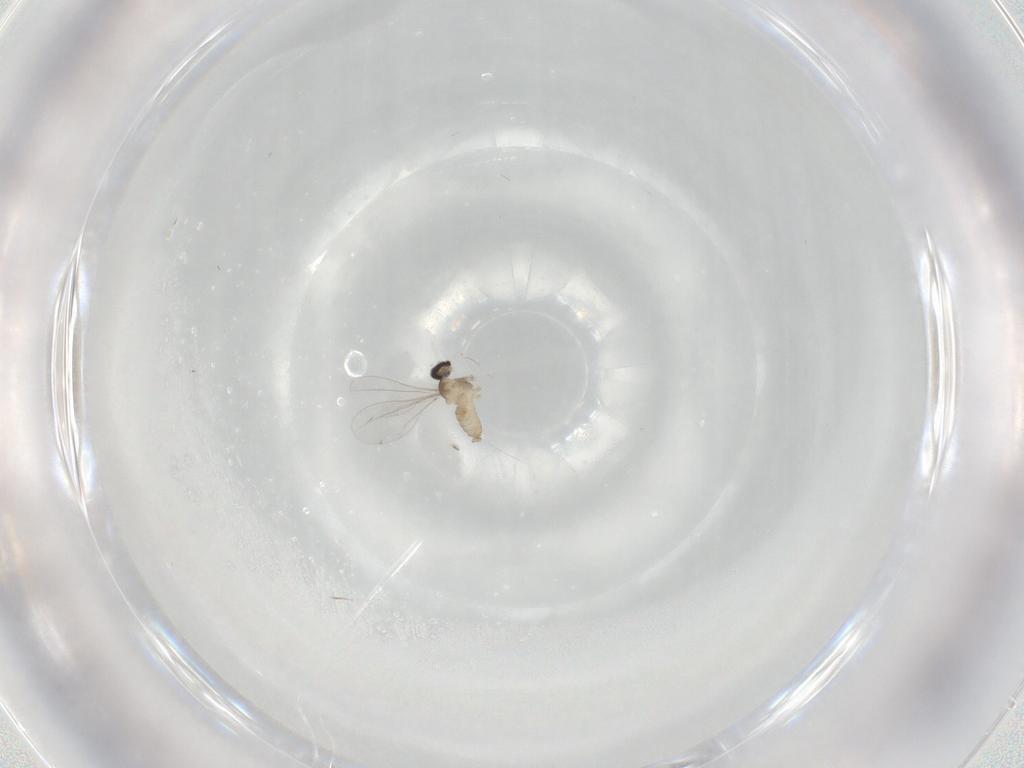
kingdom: Animalia
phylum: Arthropoda
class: Insecta
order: Diptera
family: Cecidomyiidae
